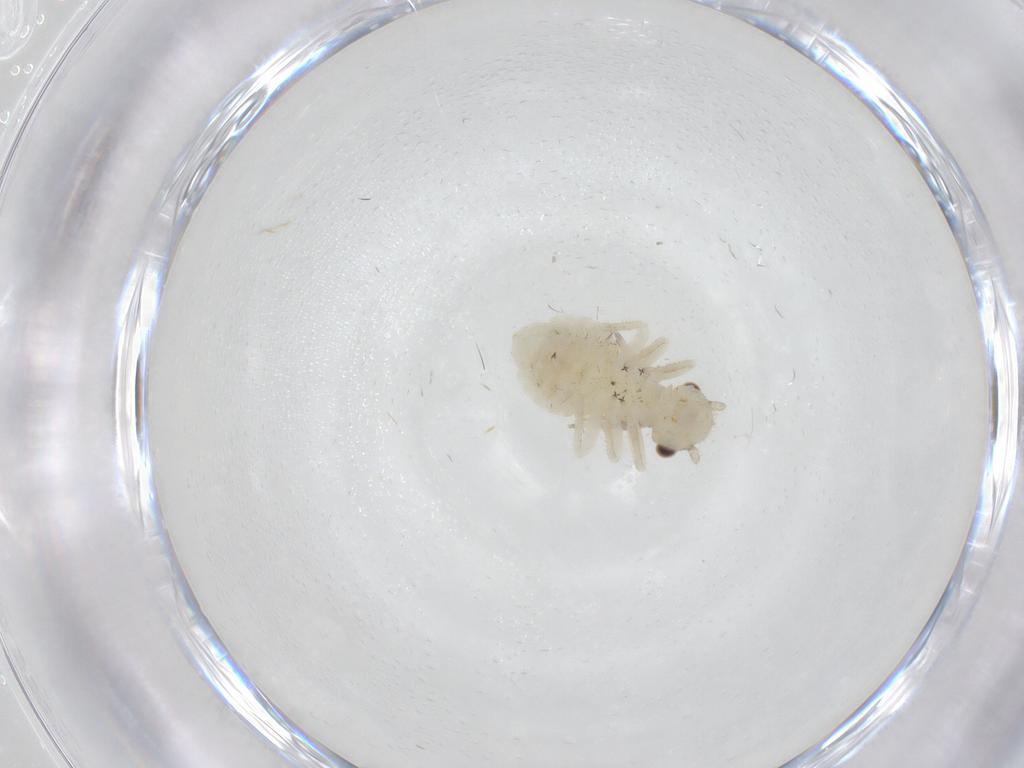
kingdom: Animalia
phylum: Arthropoda
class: Insecta
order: Psocodea
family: Amphipsocidae
